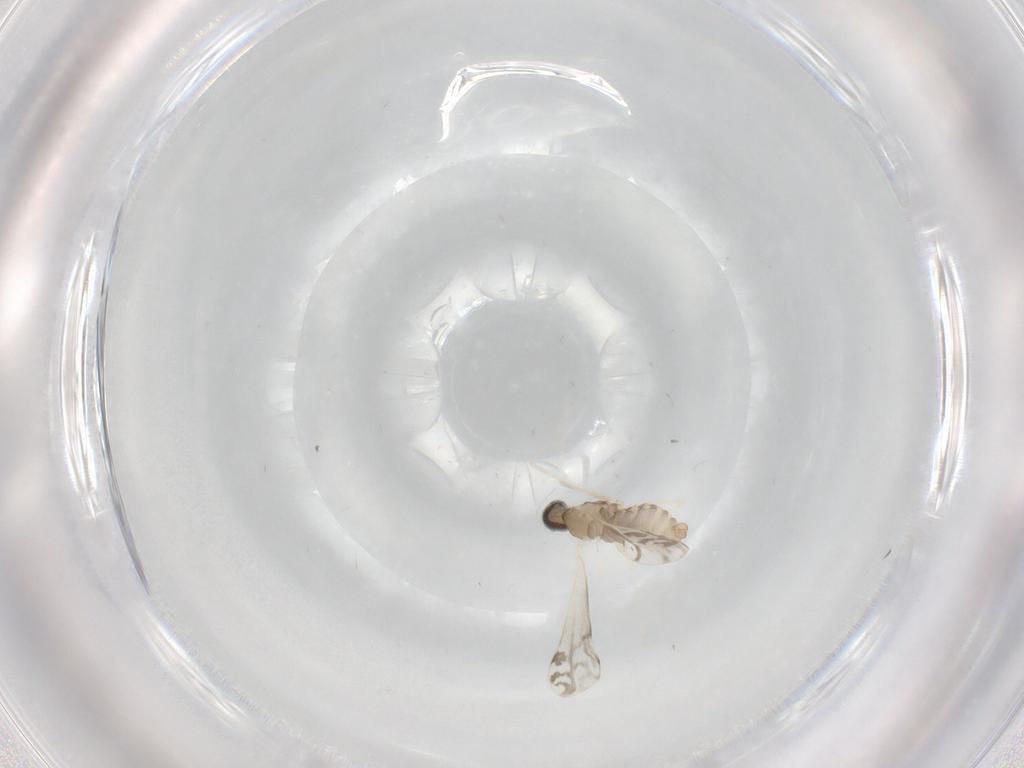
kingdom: Animalia
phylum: Arthropoda
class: Insecta
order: Diptera
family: Cecidomyiidae
